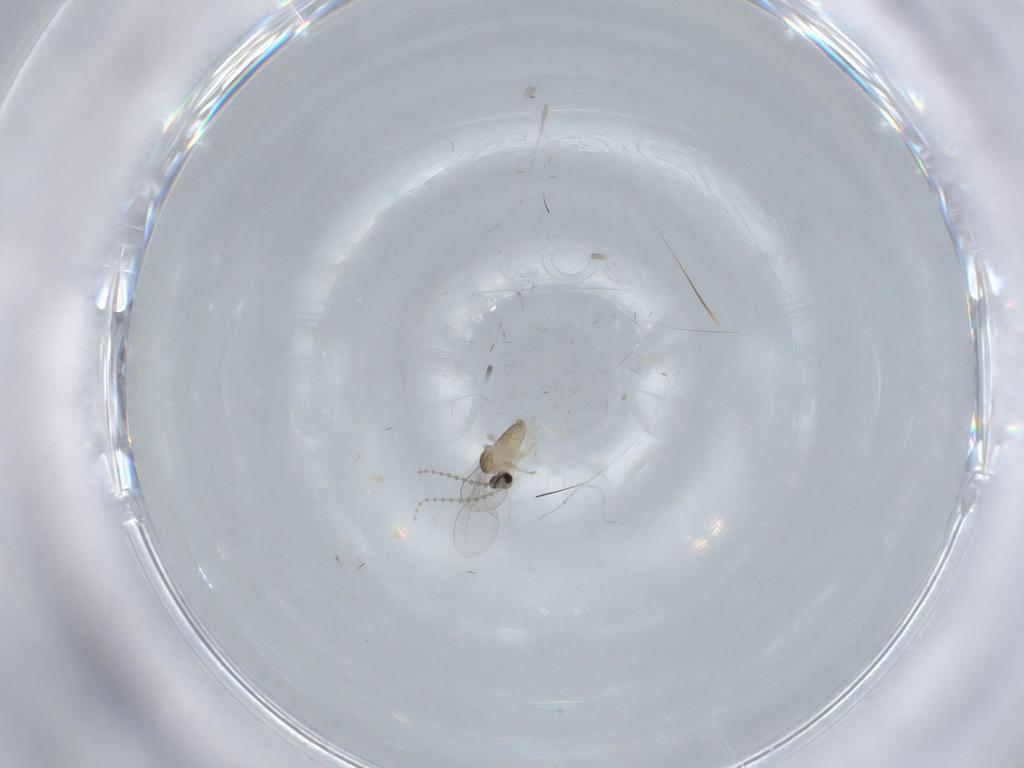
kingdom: Animalia
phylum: Arthropoda
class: Insecta
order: Diptera
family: Cecidomyiidae
